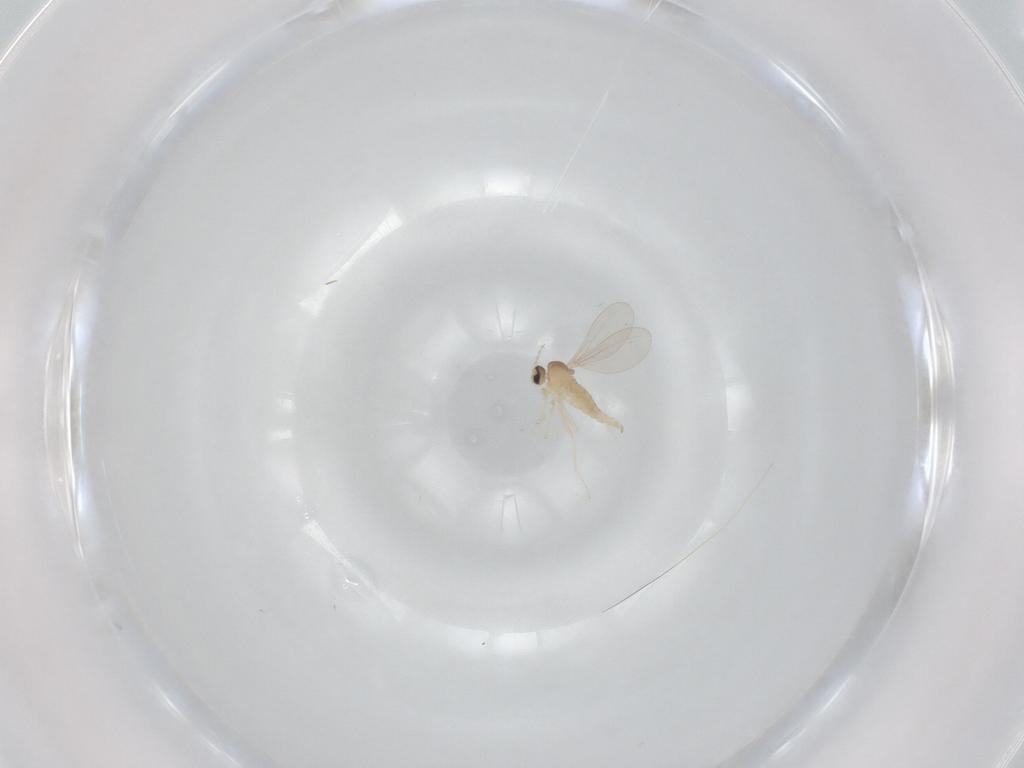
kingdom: Animalia
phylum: Arthropoda
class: Insecta
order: Diptera
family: Cecidomyiidae
